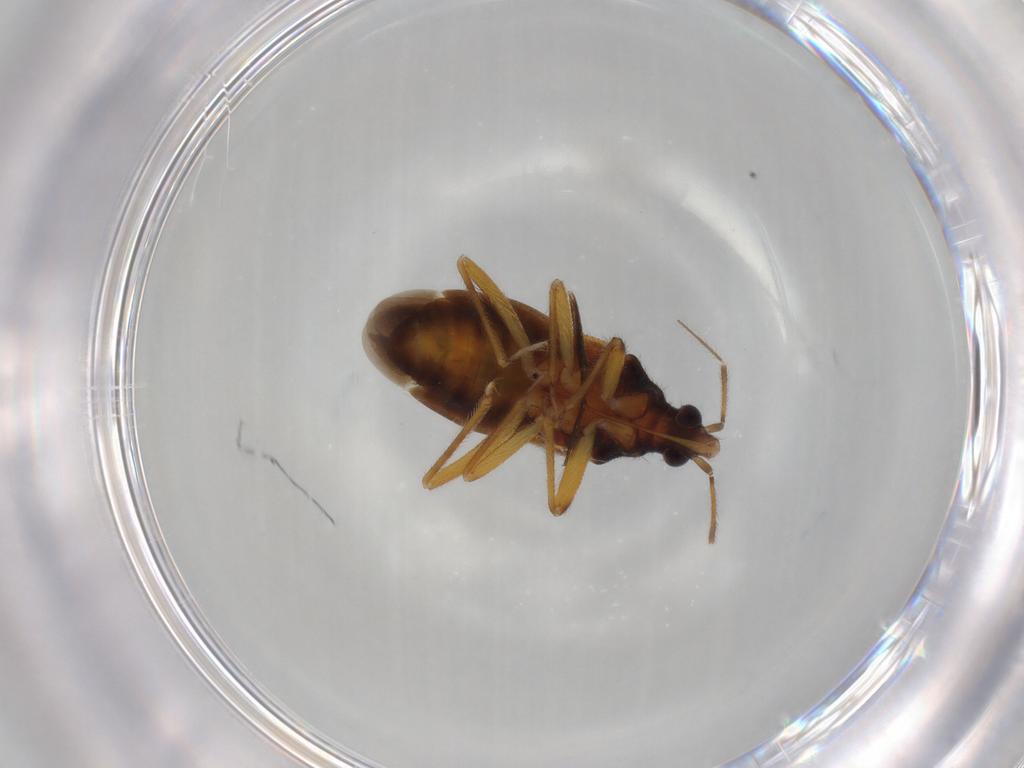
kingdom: Animalia
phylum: Arthropoda
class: Insecta
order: Hemiptera
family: Anthocoridae
